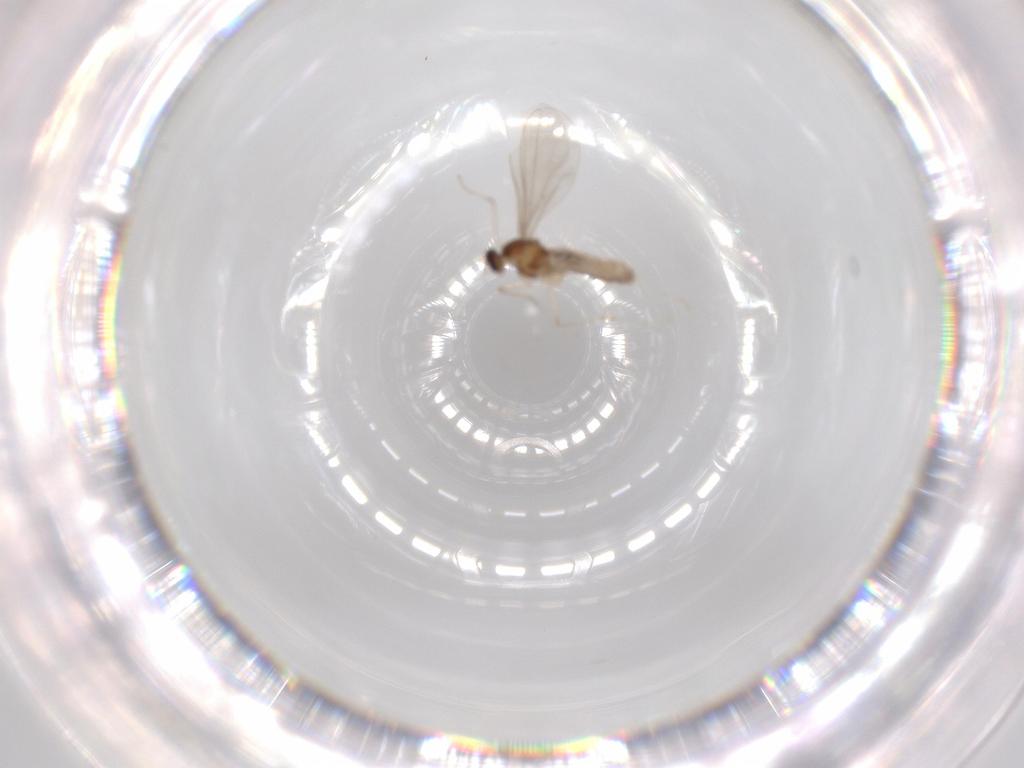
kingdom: Animalia
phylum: Arthropoda
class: Insecta
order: Diptera
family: Cecidomyiidae
